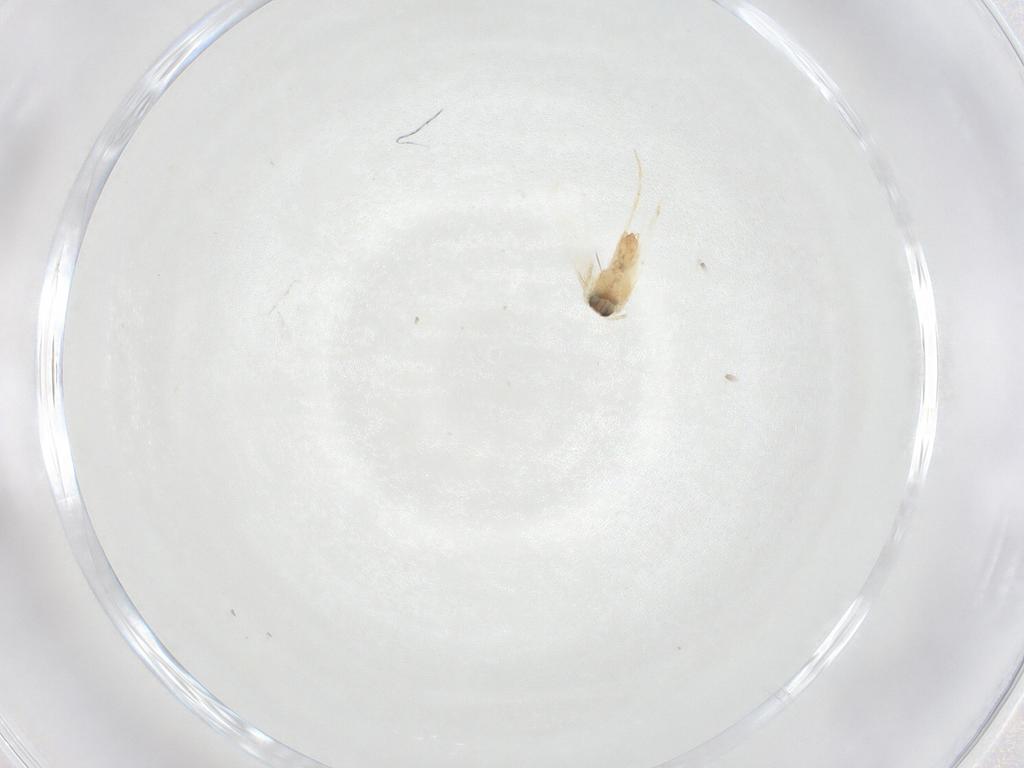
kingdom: Animalia
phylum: Arthropoda
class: Insecta
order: Lepidoptera
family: Crambidae
